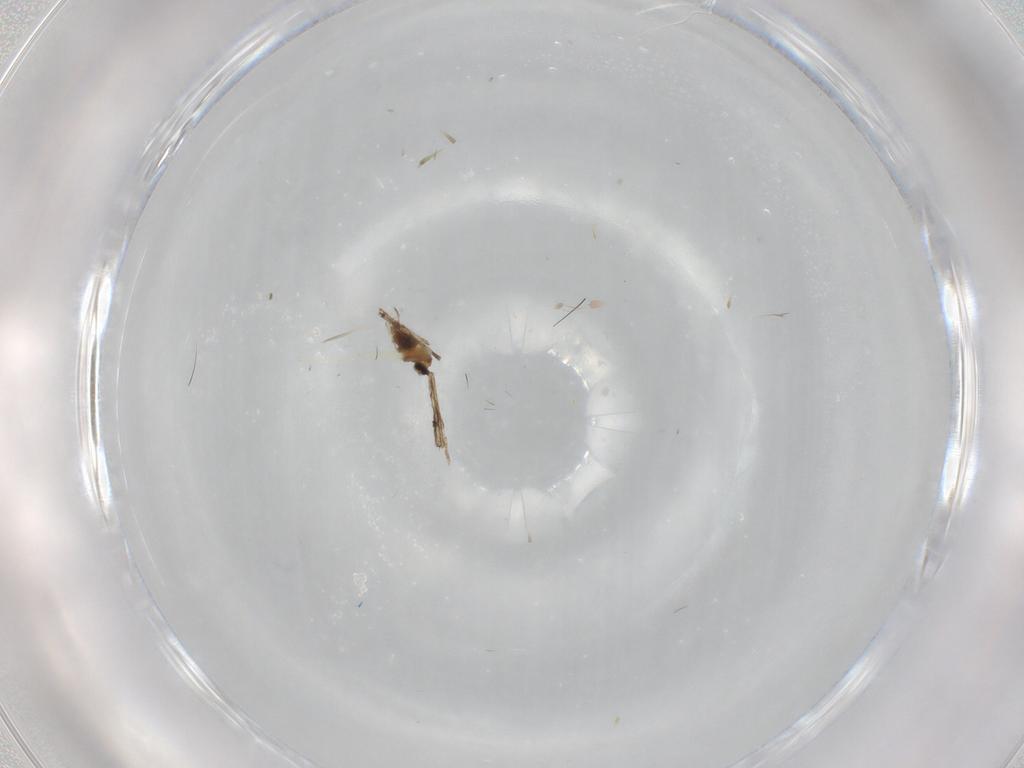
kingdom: Animalia
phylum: Arthropoda
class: Insecta
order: Diptera
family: Cecidomyiidae
